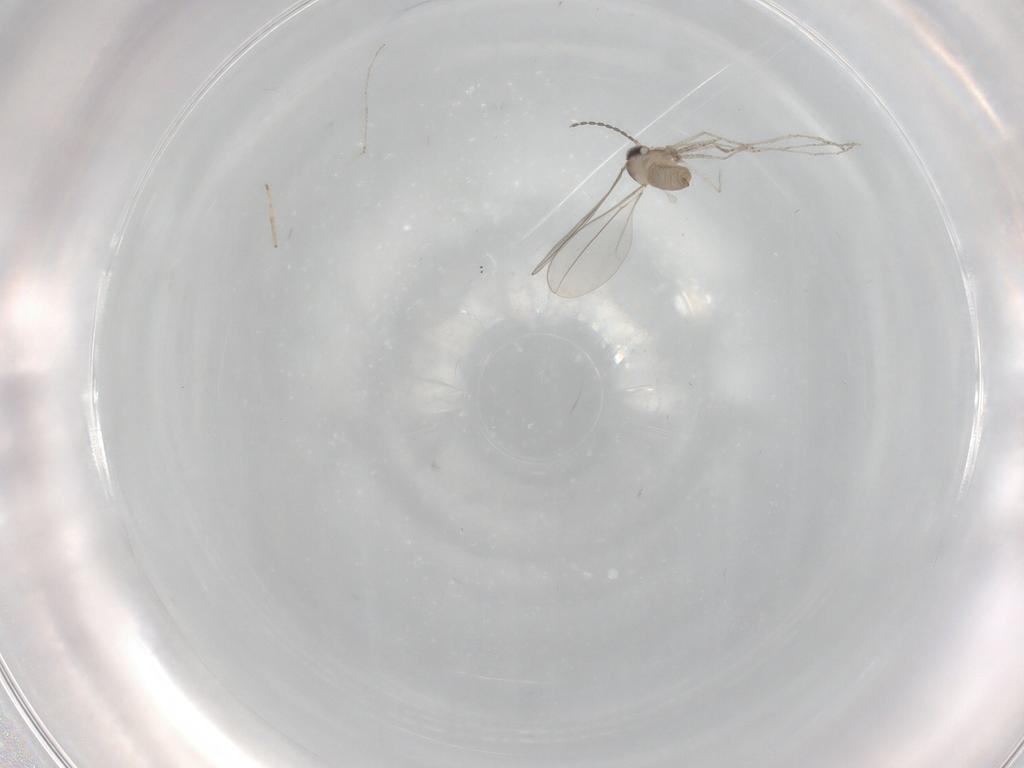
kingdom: Animalia
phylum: Arthropoda
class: Insecta
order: Diptera
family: Cecidomyiidae
